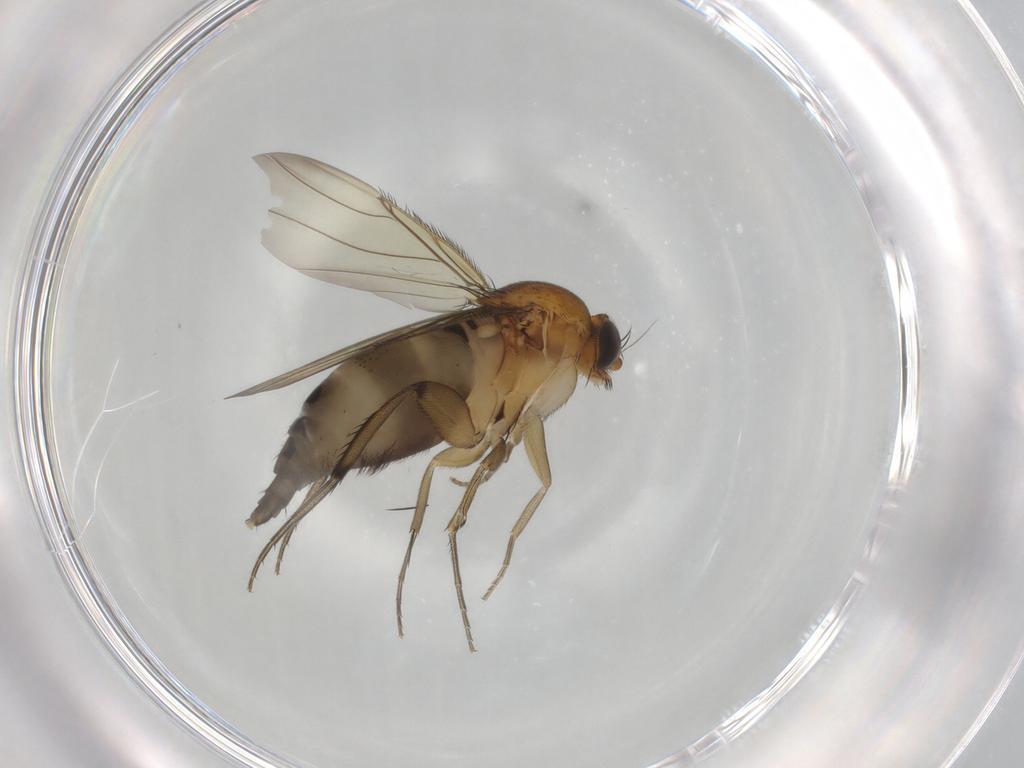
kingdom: Animalia
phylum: Arthropoda
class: Insecta
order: Diptera
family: Phoridae
